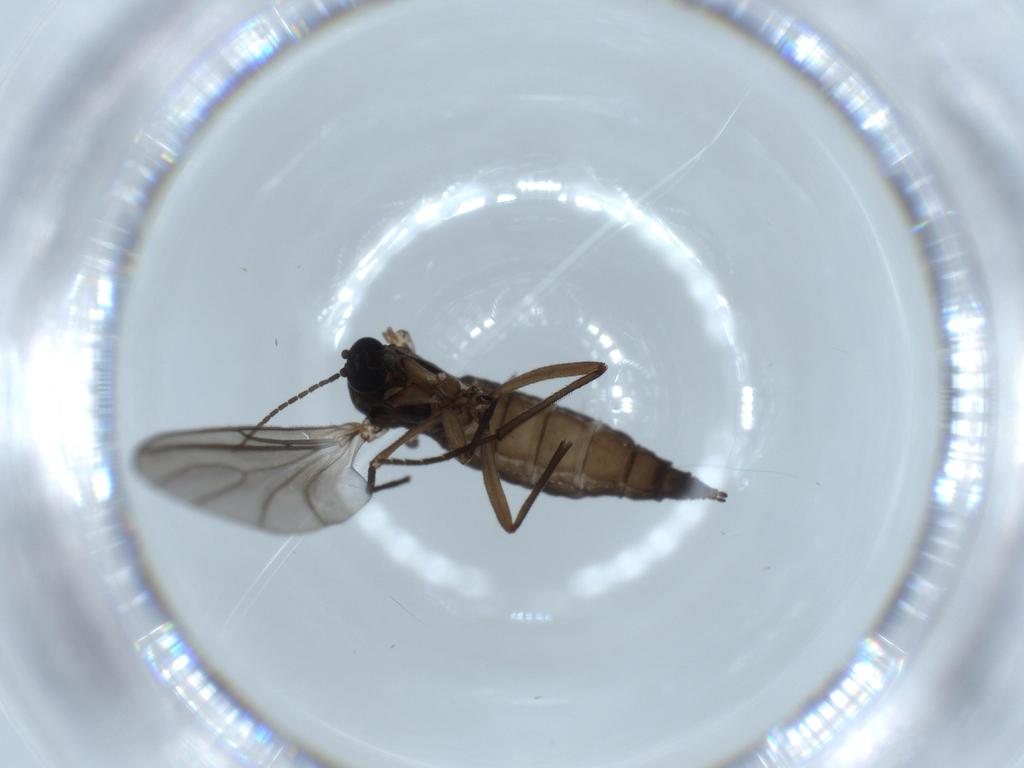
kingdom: Animalia
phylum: Arthropoda
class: Insecta
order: Diptera
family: Sciaridae
